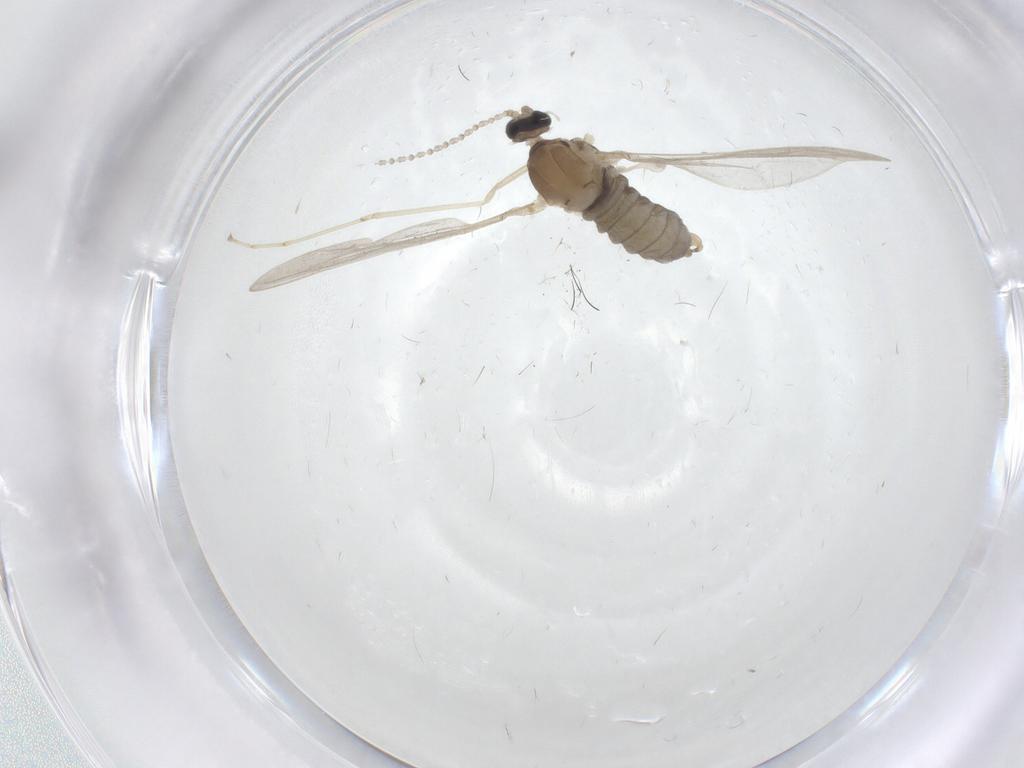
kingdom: Animalia
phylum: Arthropoda
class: Insecta
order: Diptera
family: Cecidomyiidae
